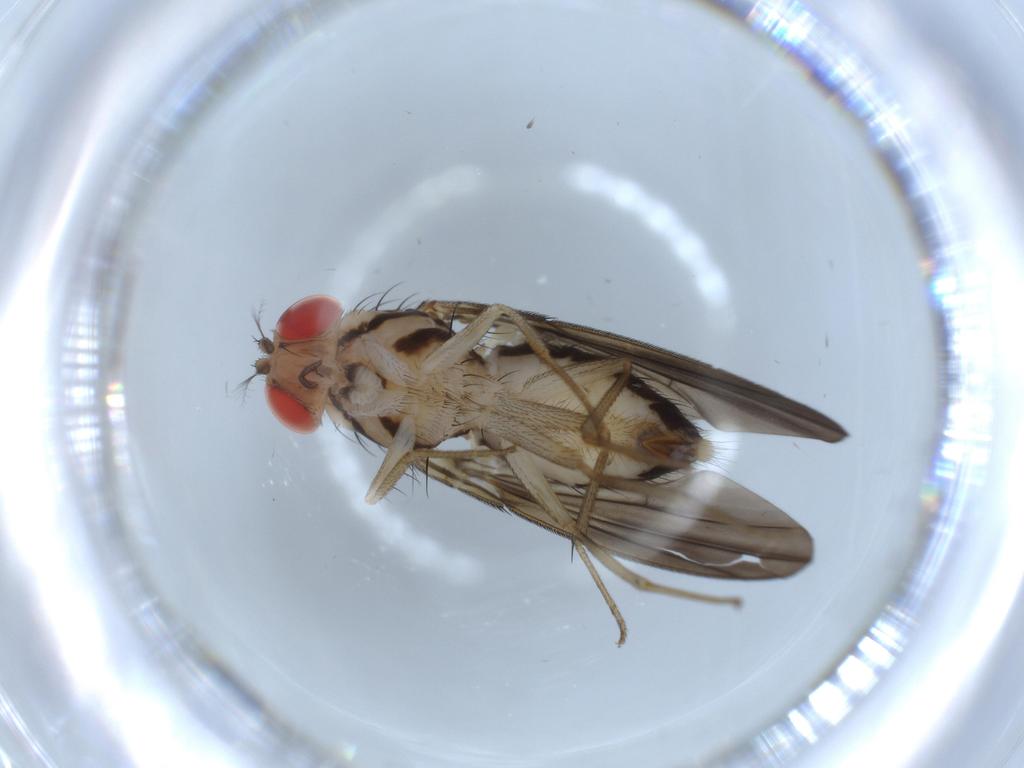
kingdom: Animalia
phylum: Arthropoda
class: Insecta
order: Diptera
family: Drosophilidae
